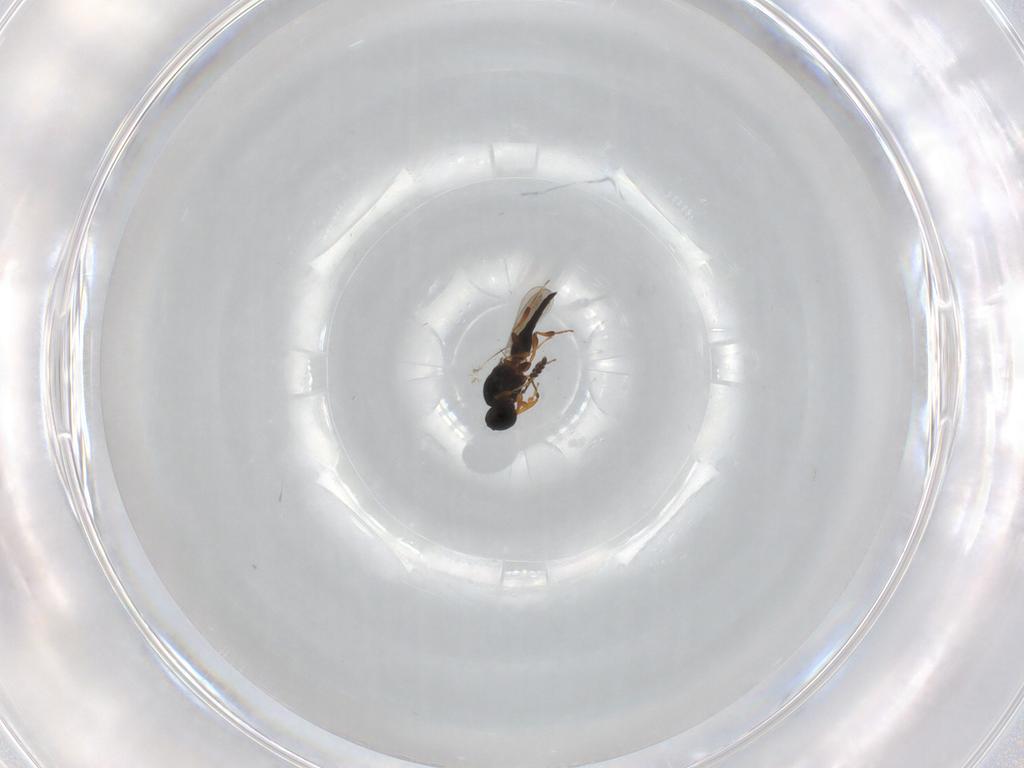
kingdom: Animalia
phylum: Arthropoda
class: Insecta
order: Hymenoptera
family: Platygastridae
